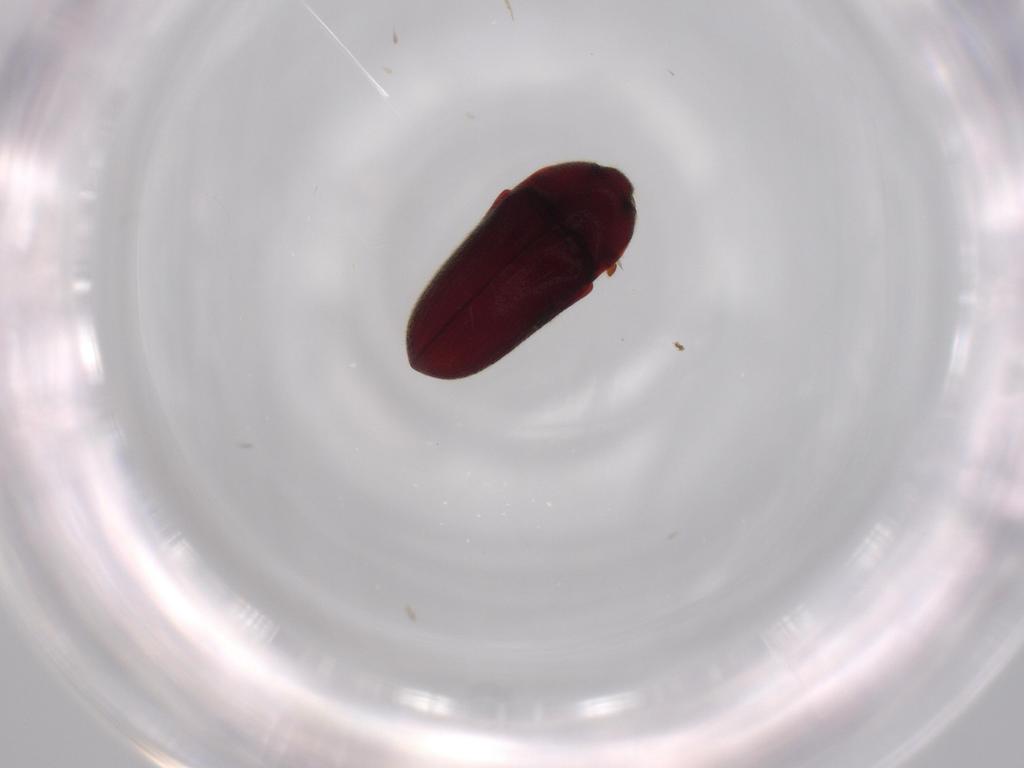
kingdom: Animalia
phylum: Arthropoda
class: Insecta
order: Coleoptera
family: Throscidae
